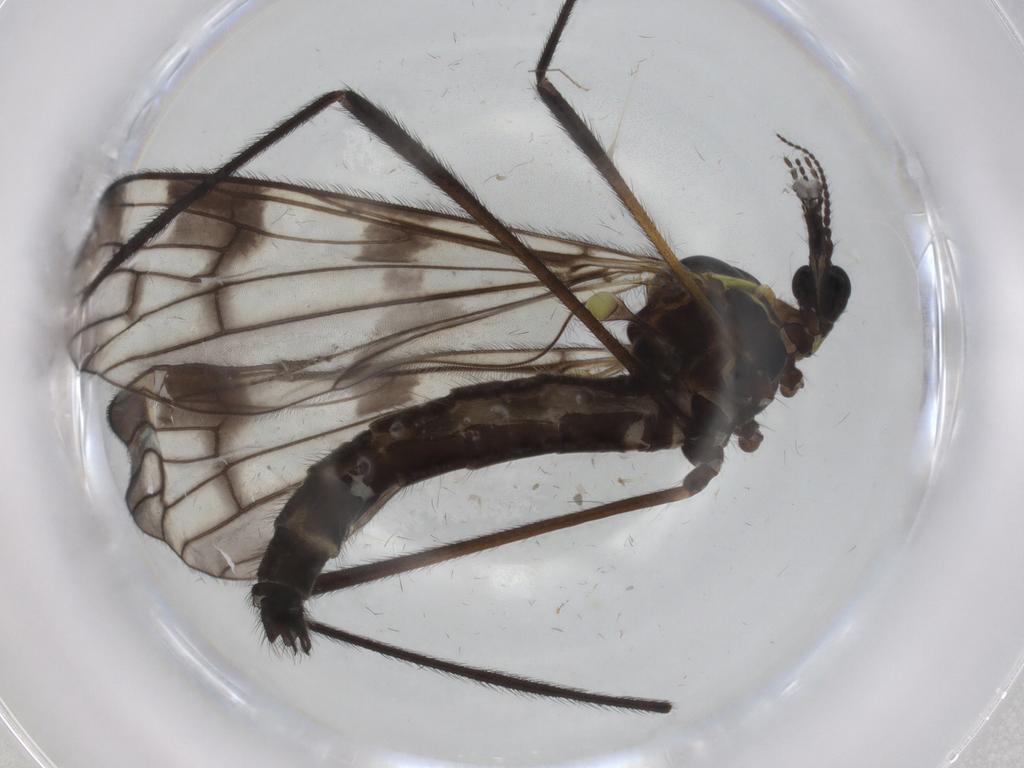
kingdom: Animalia
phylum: Arthropoda
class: Insecta
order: Diptera
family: Limoniidae
